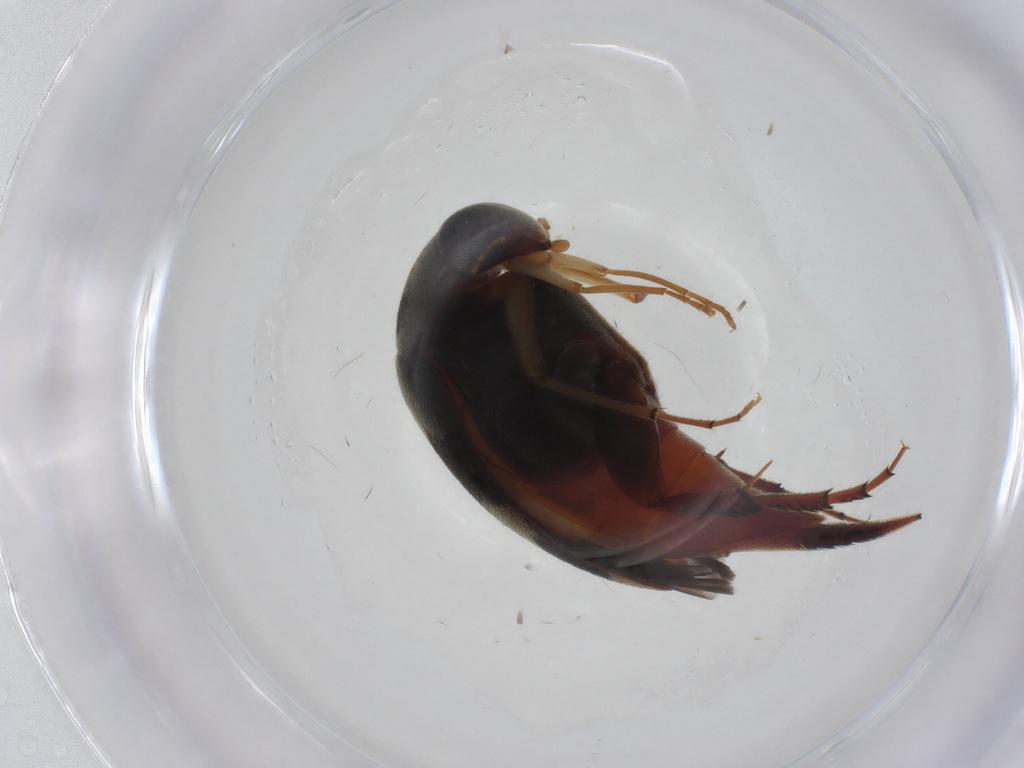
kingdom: Animalia
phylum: Arthropoda
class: Insecta
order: Coleoptera
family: Mordellidae
